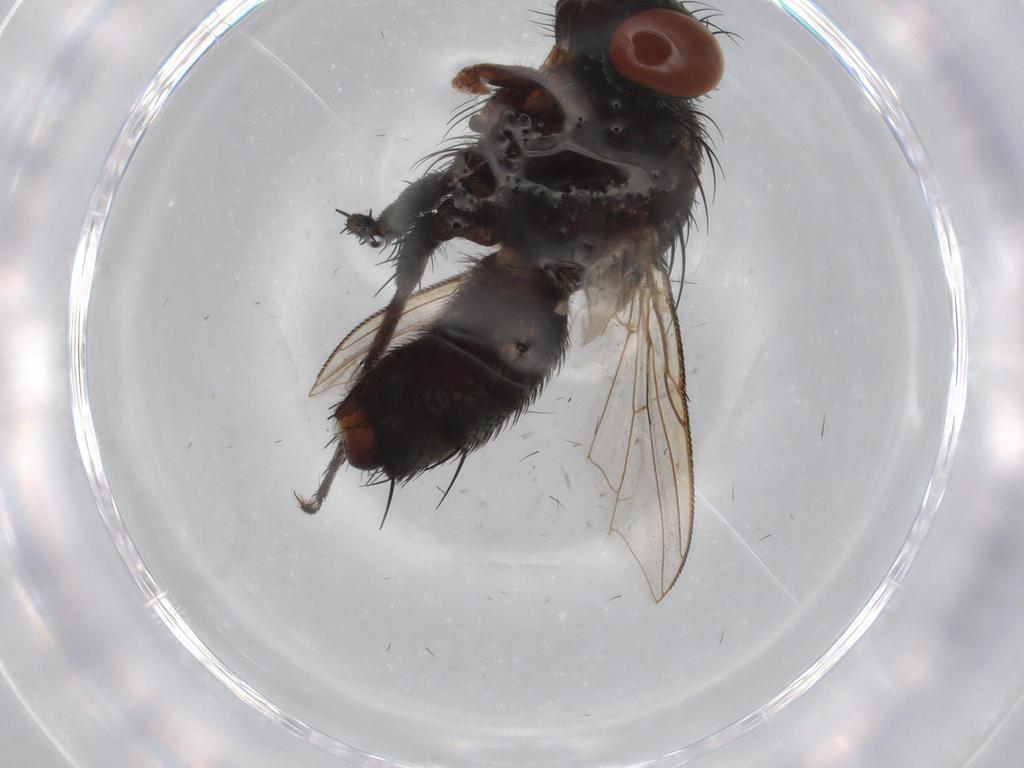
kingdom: Animalia
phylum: Arthropoda
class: Insecta
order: Diptera
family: Sarcophagidae
